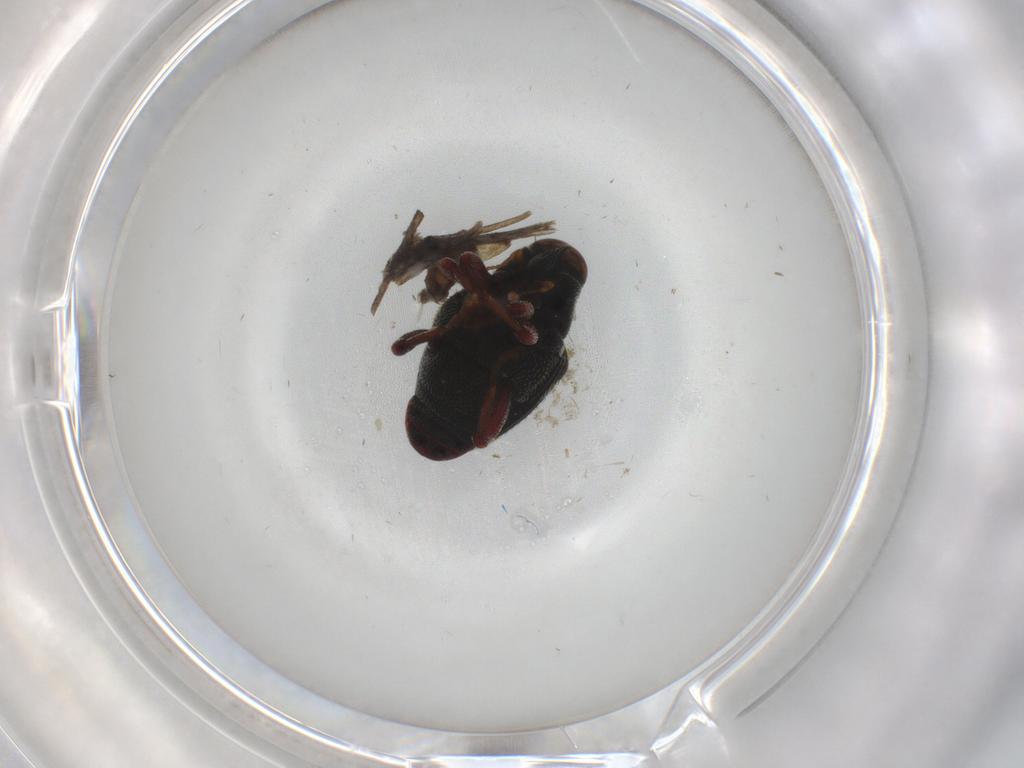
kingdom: Animalia
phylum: Arthropoda
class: Insecta
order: Coleoptera
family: Curculionidae
